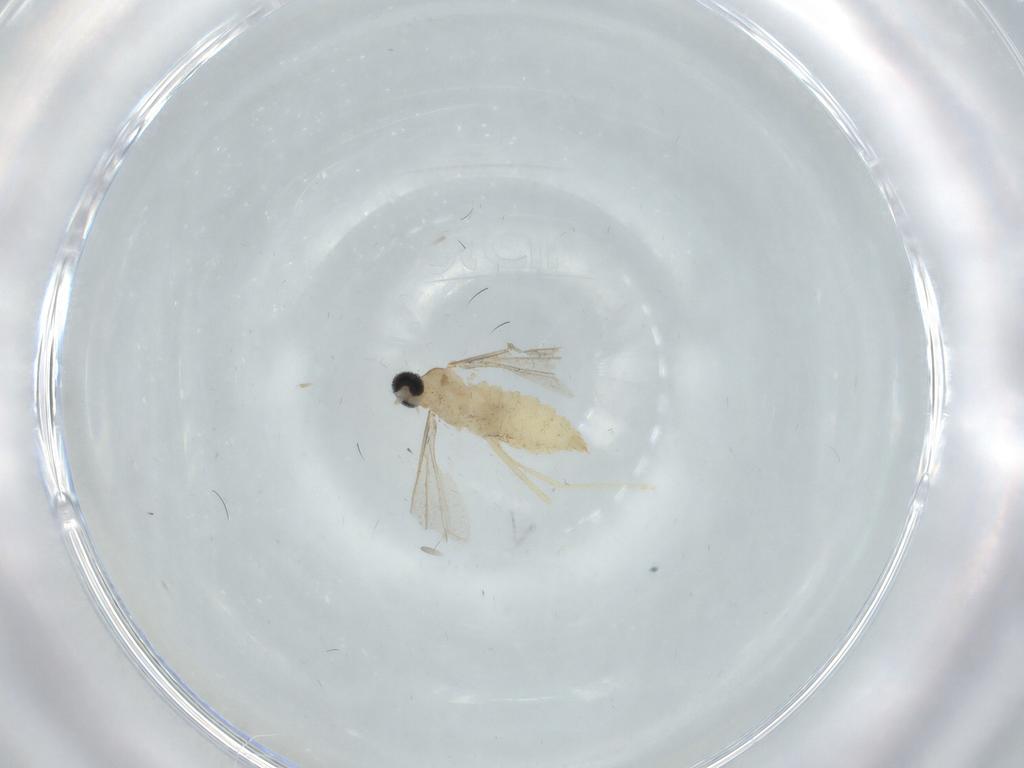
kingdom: Animalia
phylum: Arthropoda
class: Insecta
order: Diptera
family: Cecidomyiidae
